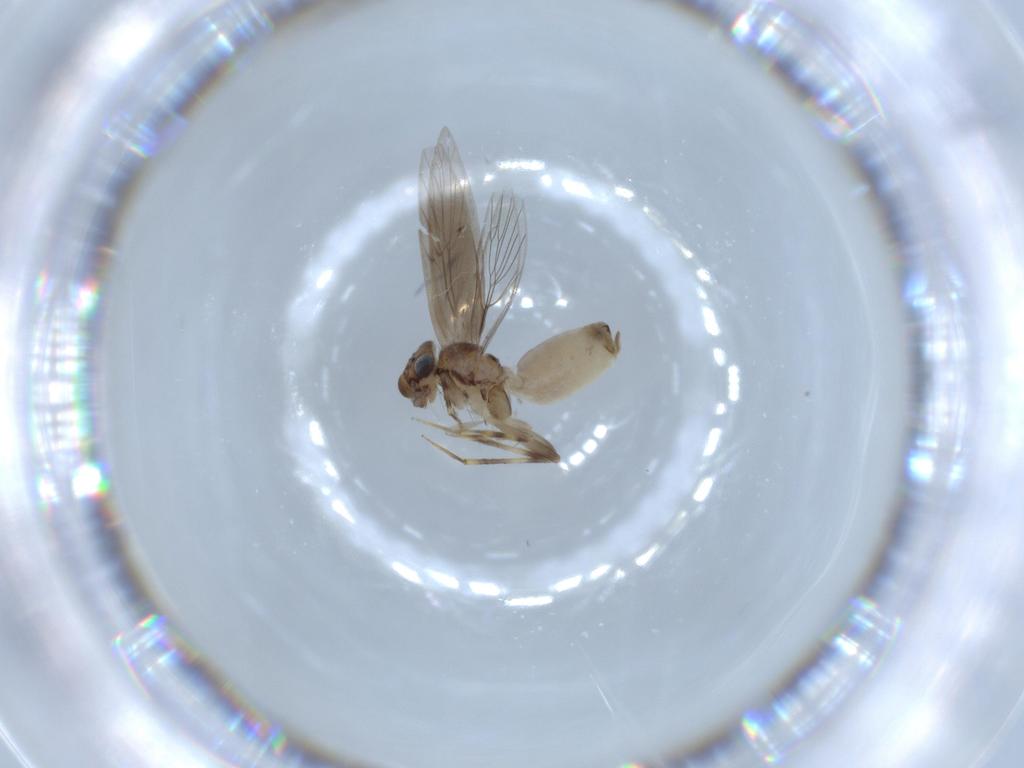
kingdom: Animalia
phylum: Arthropoda
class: Insecta
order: Psocodea
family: Lepidopsocidae
